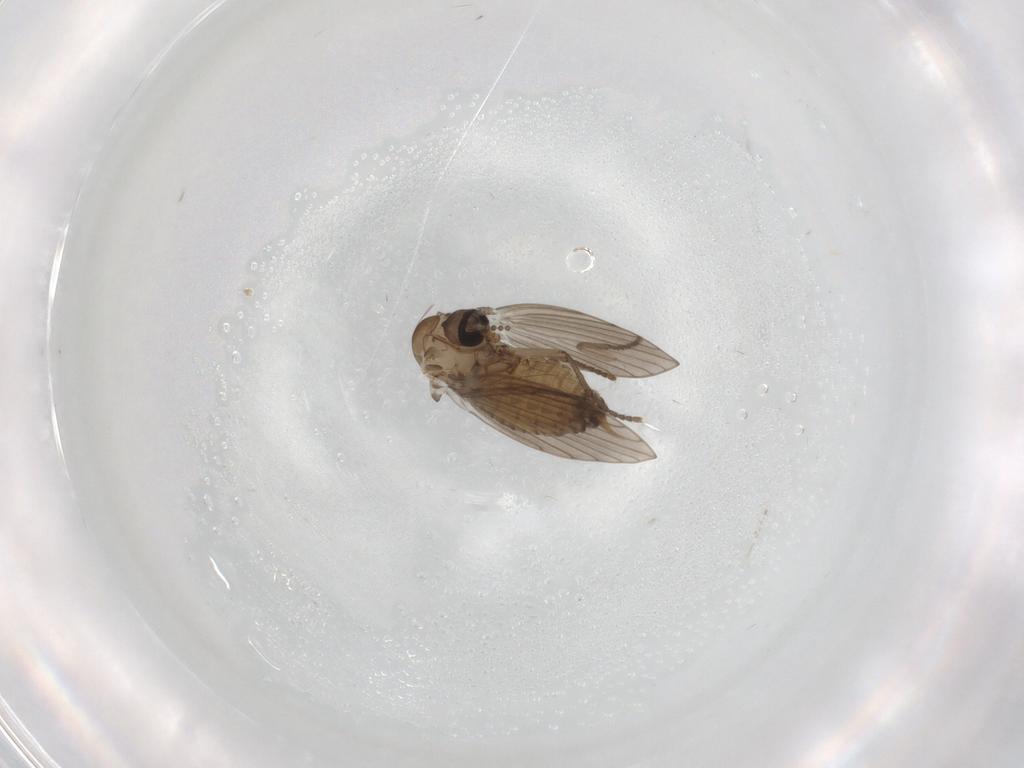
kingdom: Animalia
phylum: Arthropoda
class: Insecta
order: Diptera
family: Psychodidae
